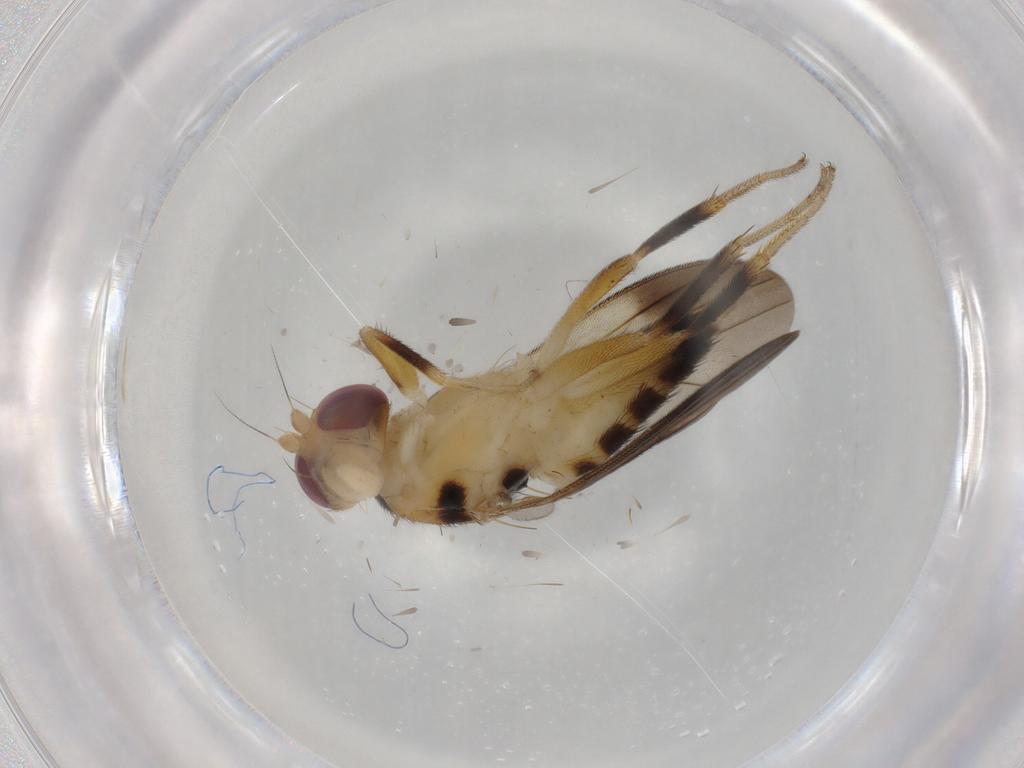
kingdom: Animalia
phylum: Arthropoda
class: Insecta
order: Diptera
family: Clusiidae
